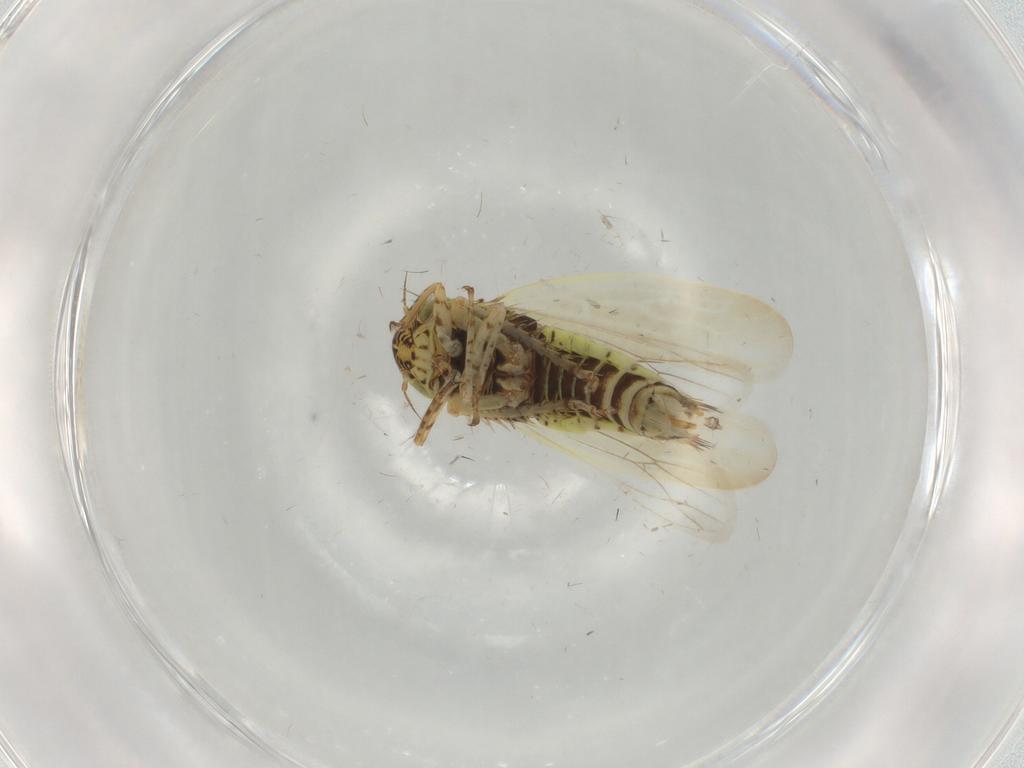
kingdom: Animalia
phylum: Arthropoda
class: Insecta
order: Hemiptera
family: Cicadellidae
